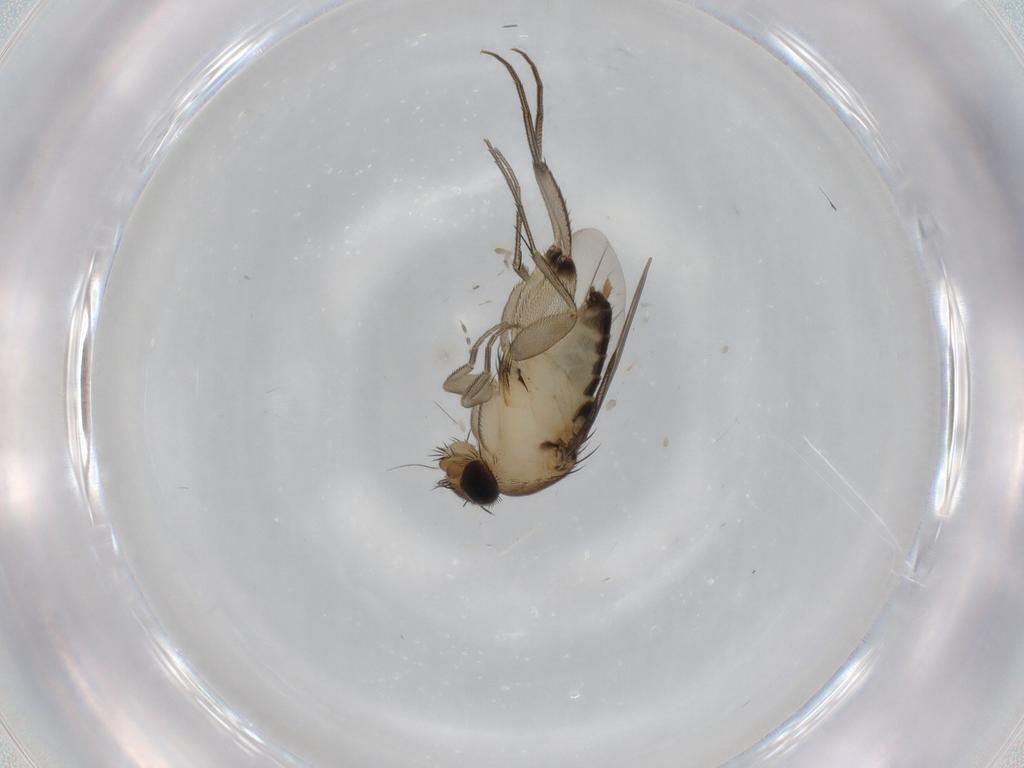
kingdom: Animalia
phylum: Arthropoda
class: Insecta
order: Diptera
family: Phoridae
